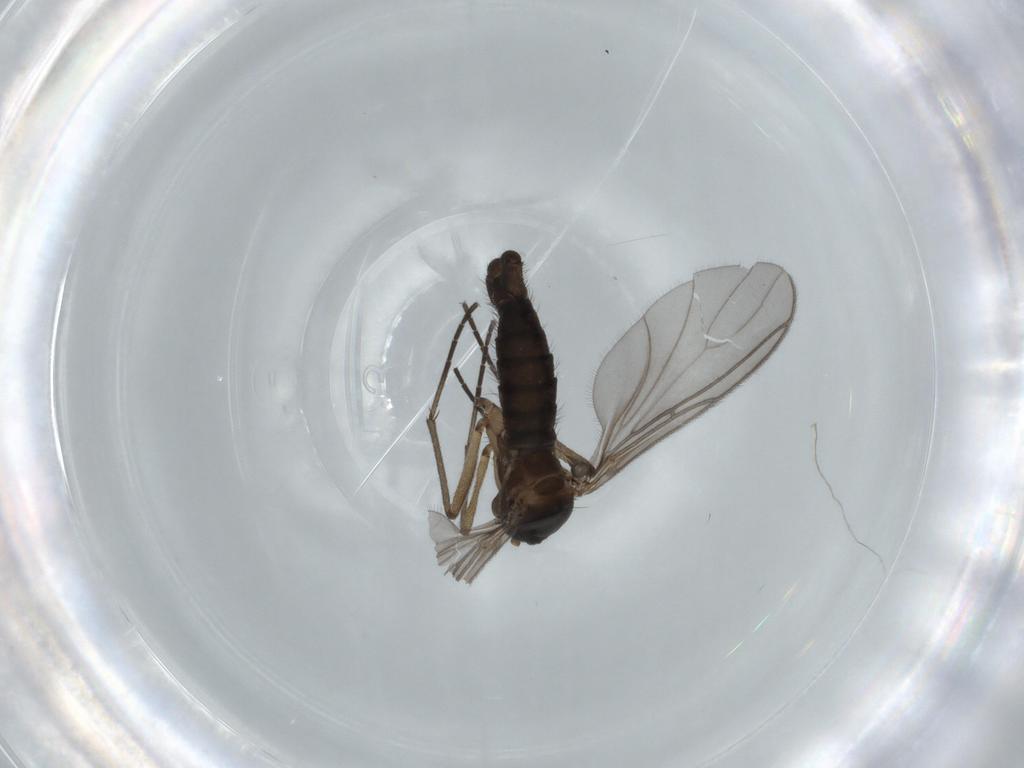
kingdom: Animalia
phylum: Arthropoda
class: Insecta
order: Diptera
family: Sciaridae
